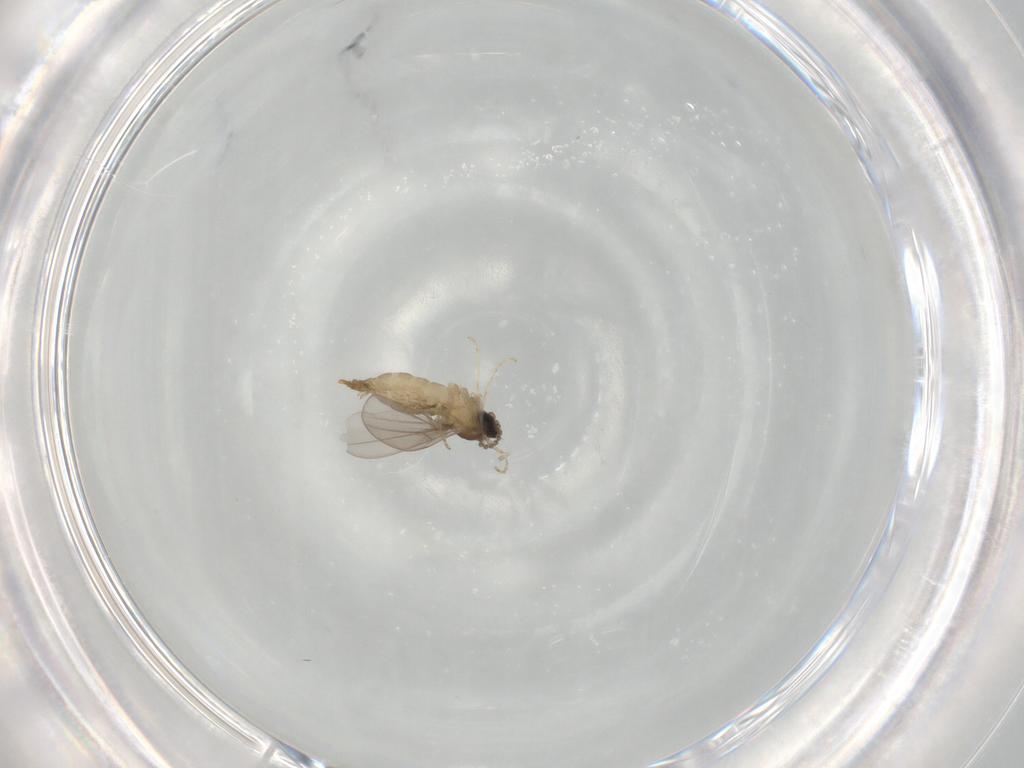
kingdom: Animalia
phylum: Arthropoda
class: Insecta
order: Diptera
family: Cecidomyiidae
